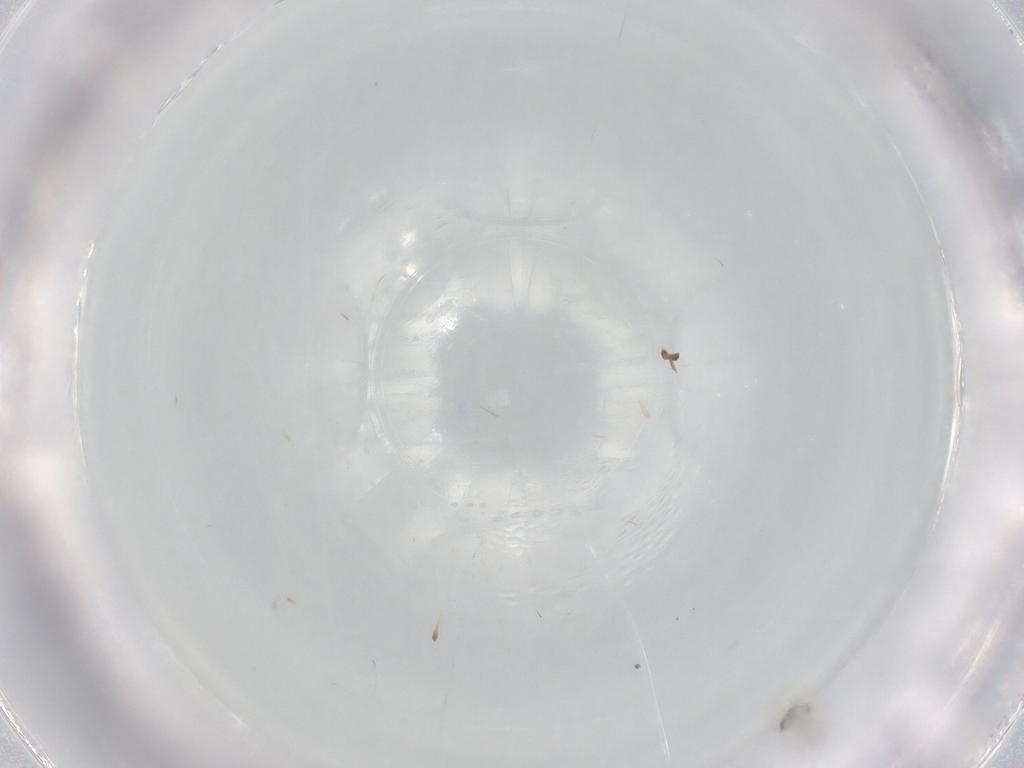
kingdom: Animalia
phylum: Arthropoda
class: Insecta
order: Hymenoptera
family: Trichogrammatidae
